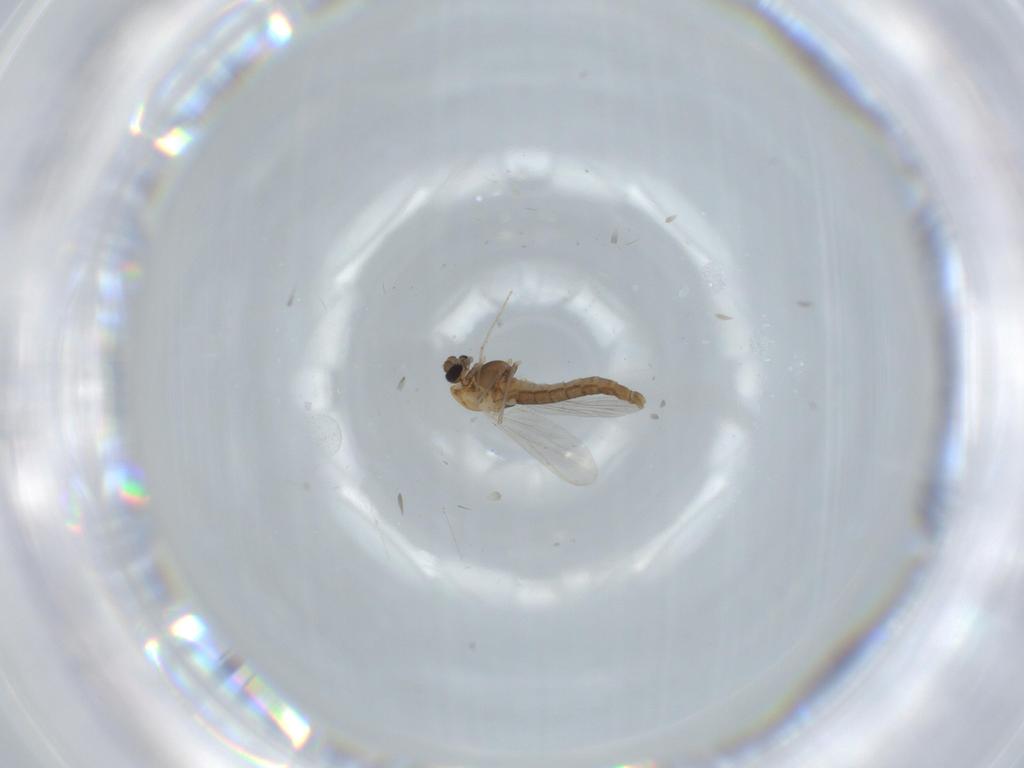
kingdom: Animalia
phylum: Arthropoda
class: Insecta
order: Diptera
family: Chironomidae
